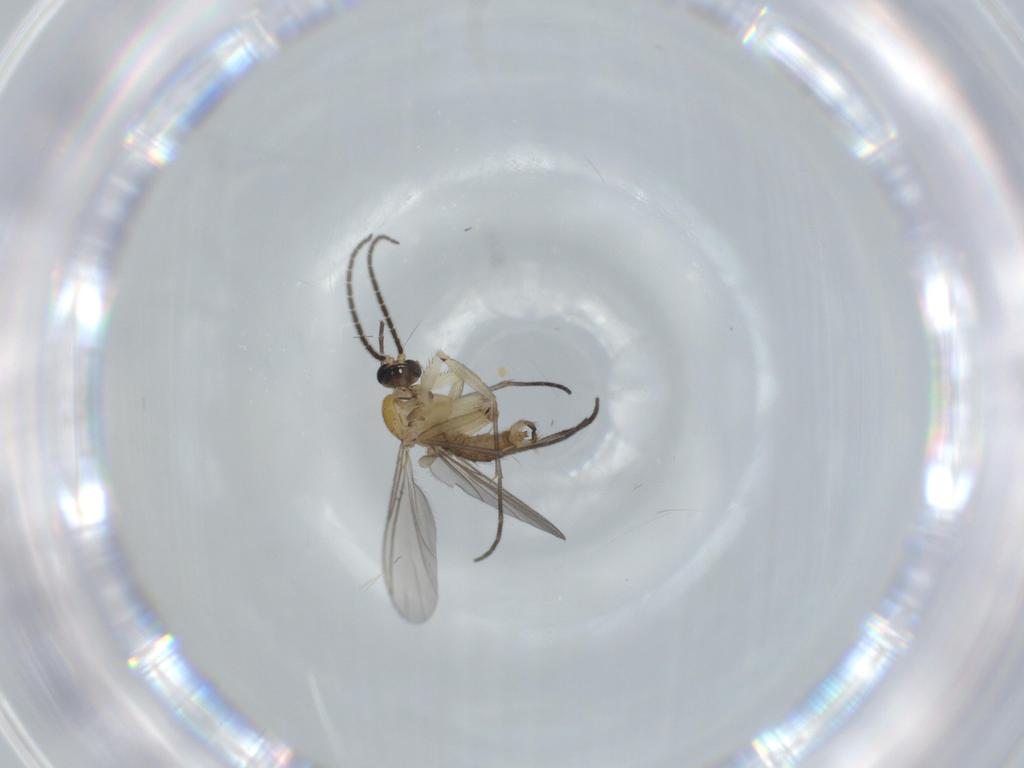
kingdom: Animalia
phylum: Arthropoda
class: Insecta
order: Diptera
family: Sciaridae
